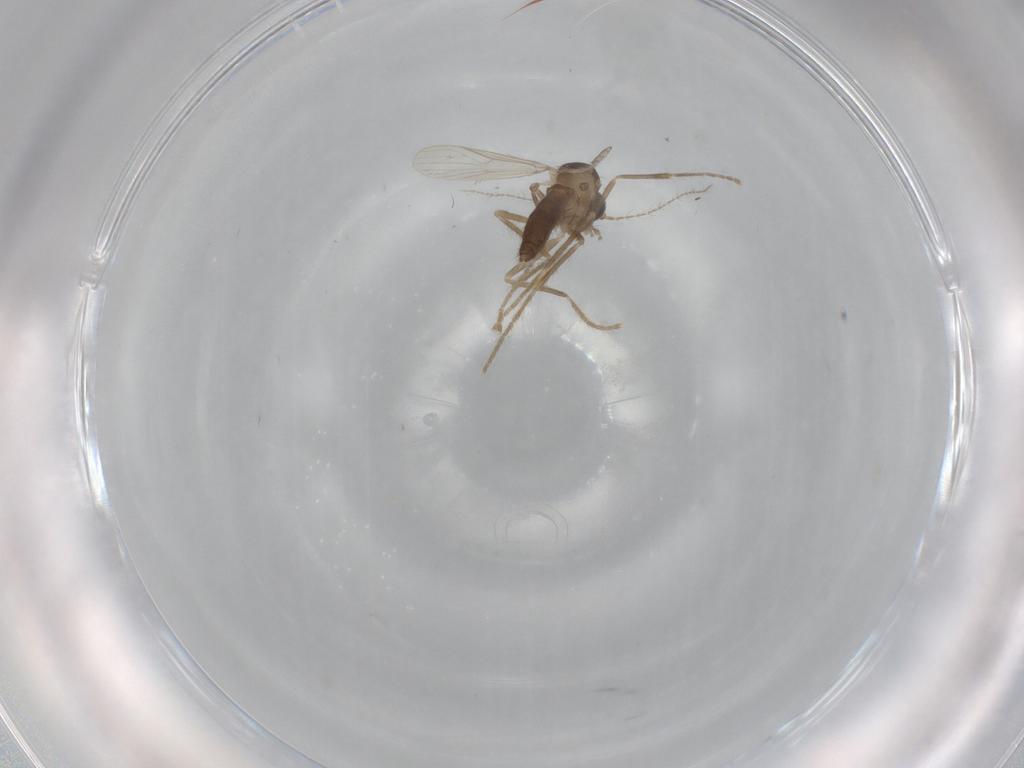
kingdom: Animalia
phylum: Arthropoda
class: Insecta
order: Diptera
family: Corethrellidae
